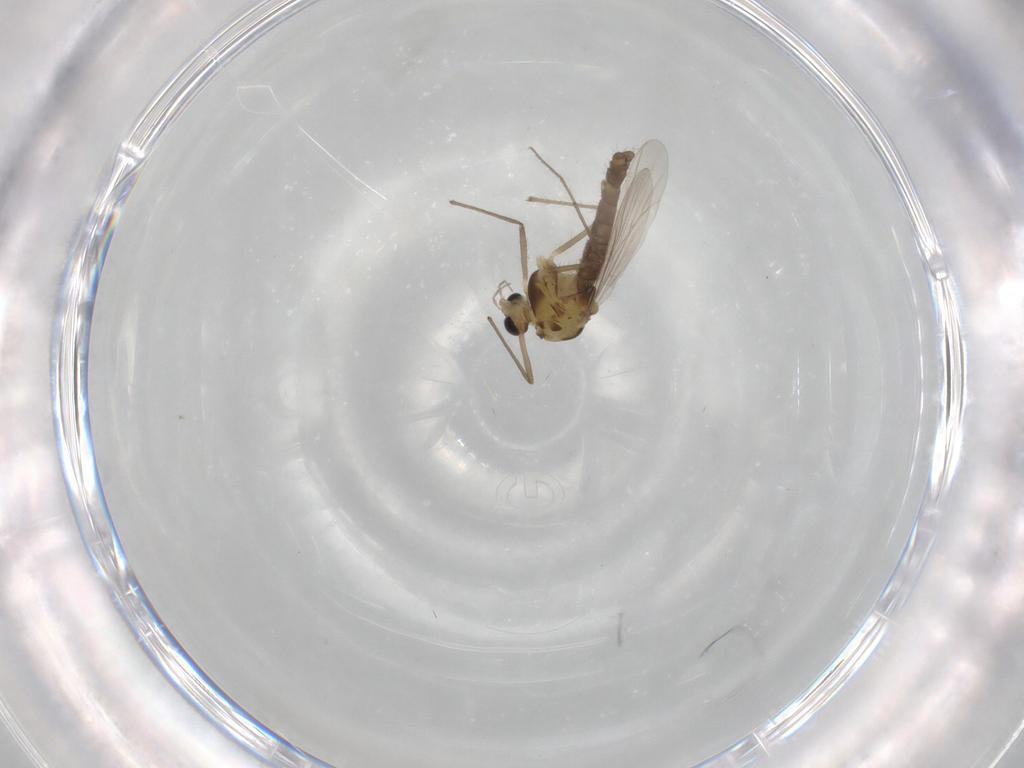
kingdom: Animalia
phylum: Arthropoda
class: Insecta
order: Diptera
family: Chironomidae
